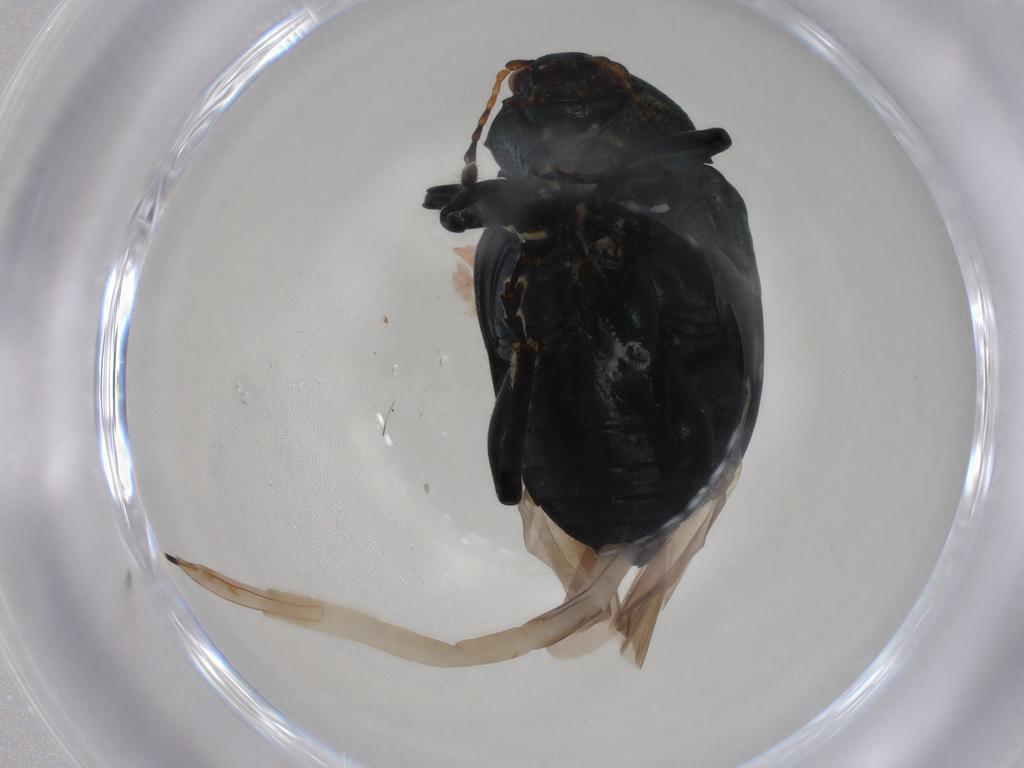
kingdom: Animalia
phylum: Arthropoda
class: Insecta
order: Coleoptera
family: Chrysomelidae
